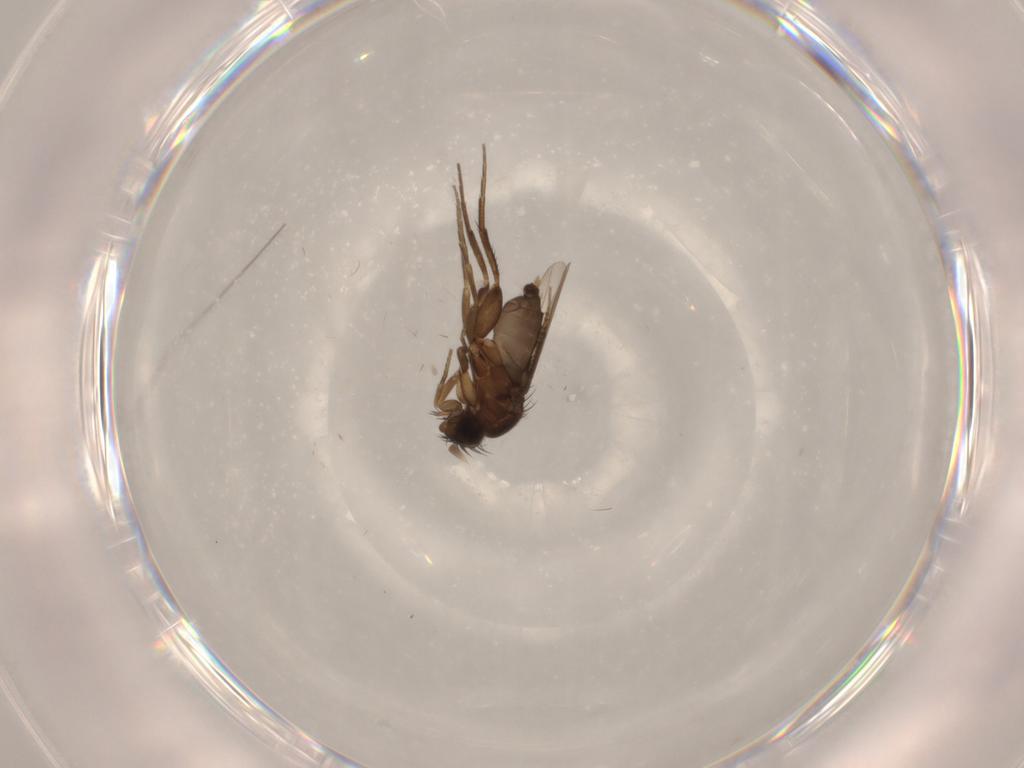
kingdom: Animalia
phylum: Arthropoda
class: Insecta
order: Diptera
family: Phoridae
